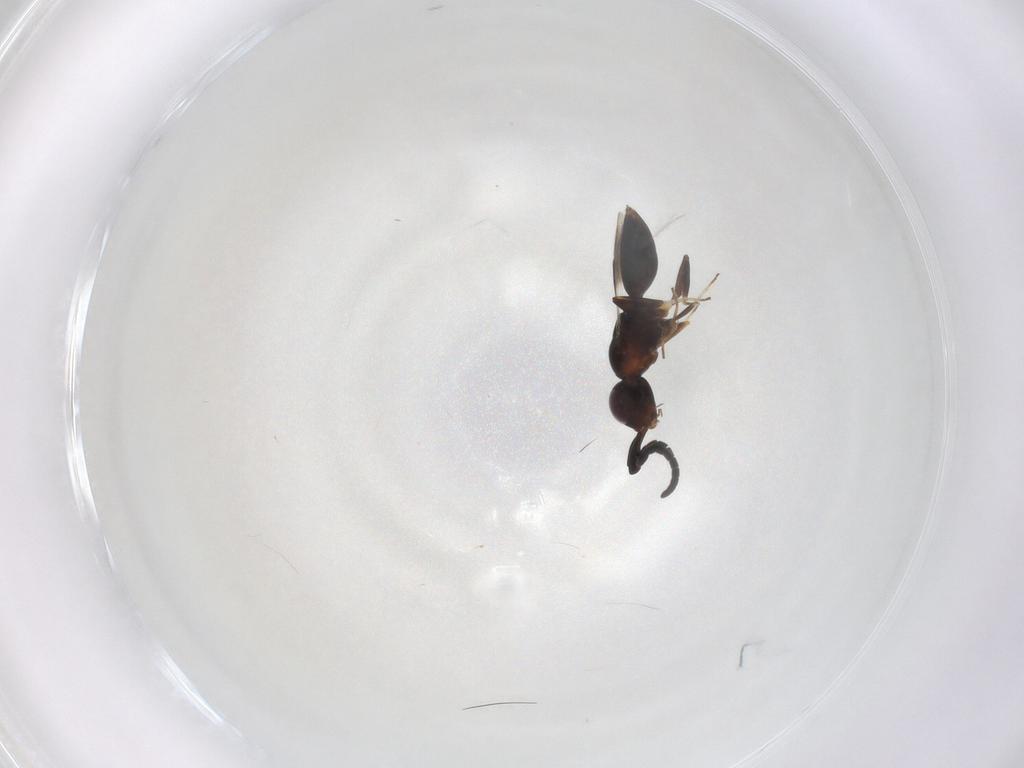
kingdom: Animalia
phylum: Arthropoda
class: Insecta
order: Hymenoptera
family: Megaspilidae
